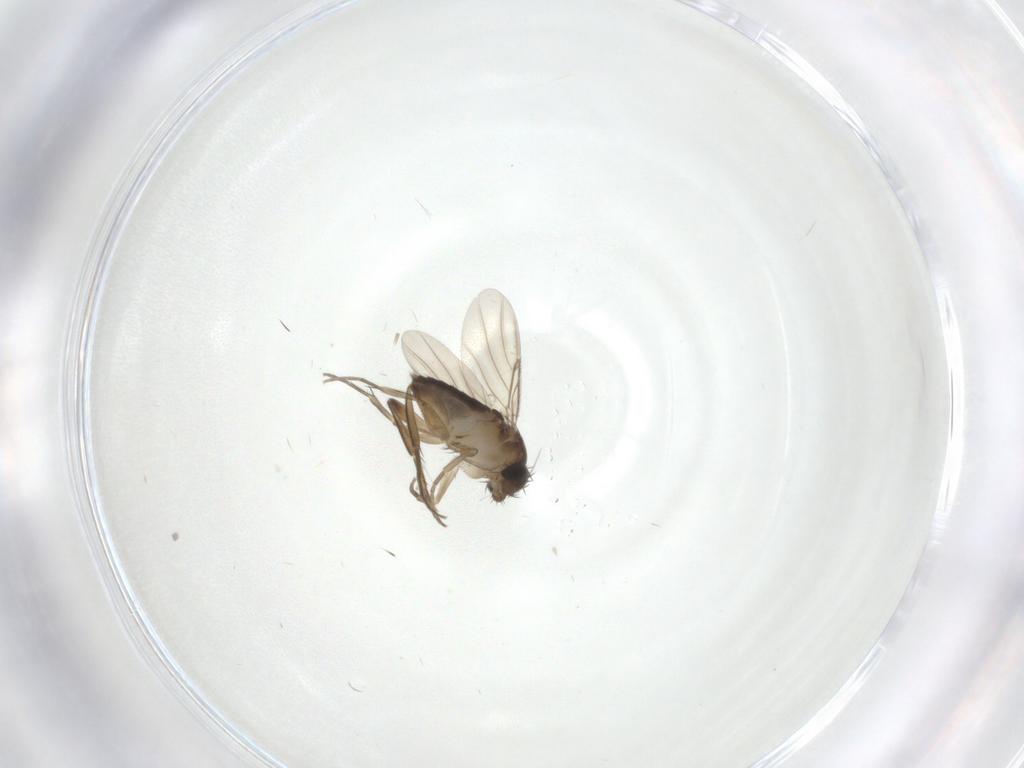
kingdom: Animalia
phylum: Arthropoda
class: Insecta
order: Diptera
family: Phoridae
